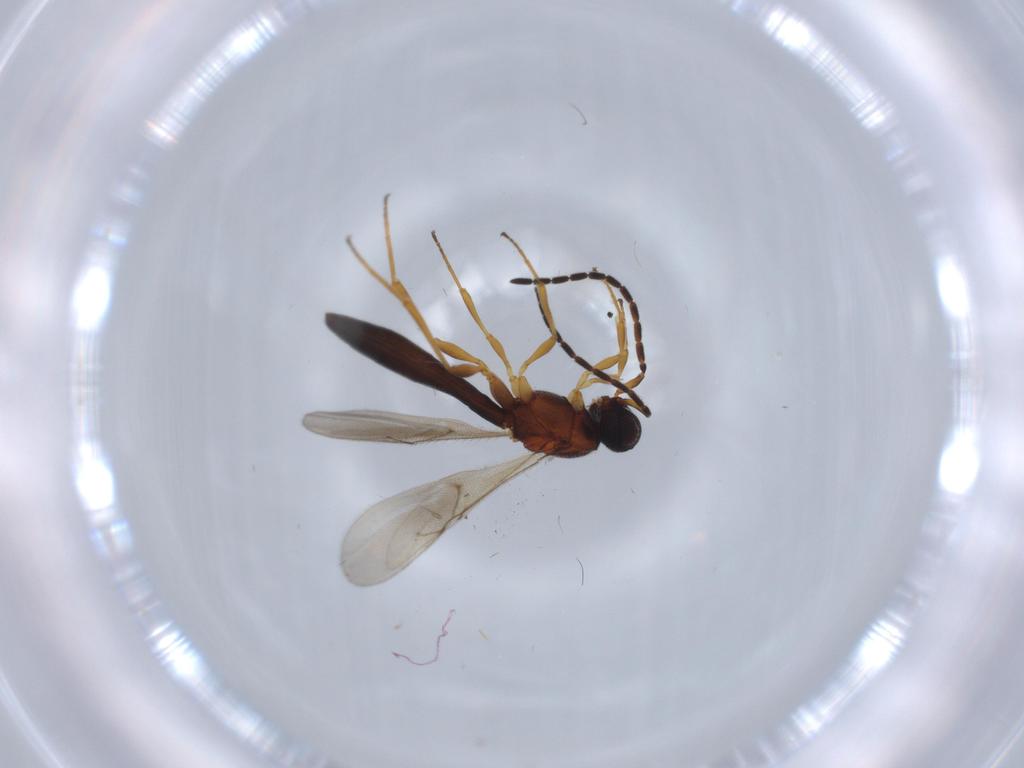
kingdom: Animalia
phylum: Arthropoda
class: Insecta
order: Hymenoptera
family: Scelionidae
